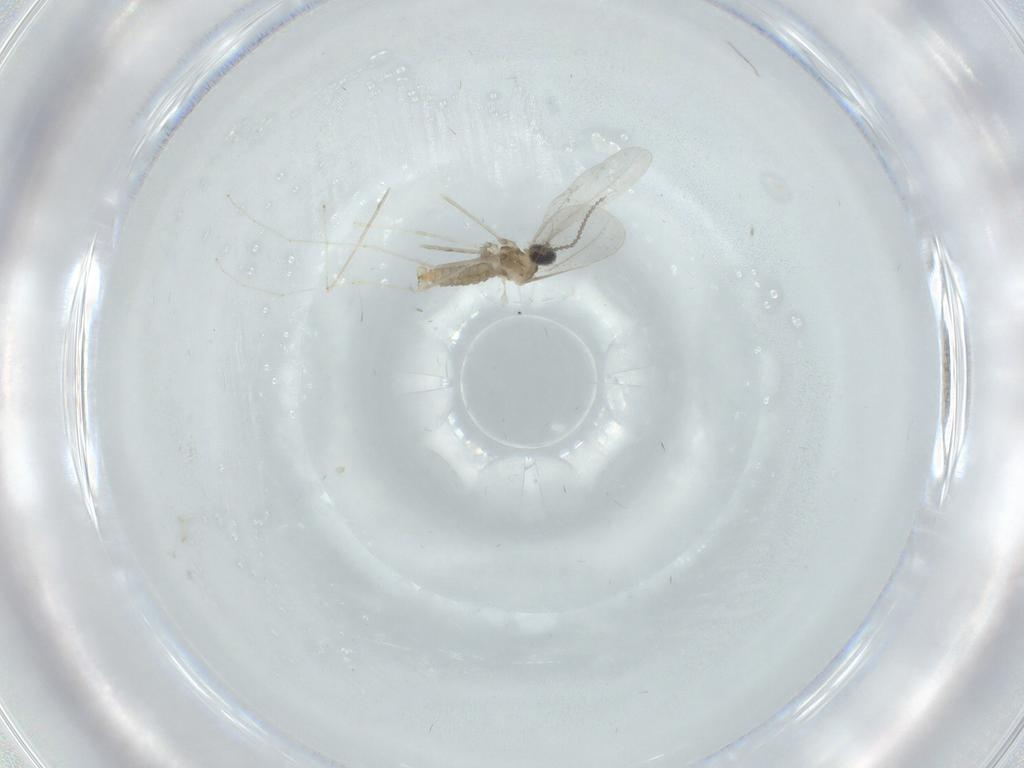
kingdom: Animalia
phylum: Arthropoda
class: Insecta
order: Diptera
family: Cecidomyiidae
